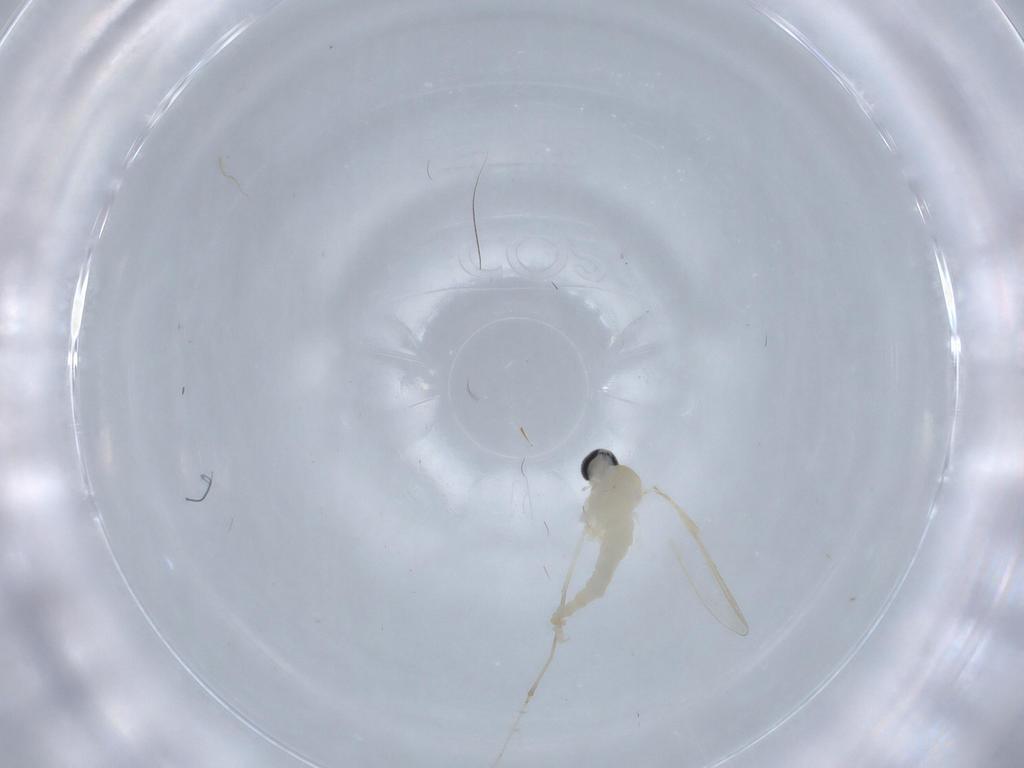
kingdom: Animalia
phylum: Arthropoda
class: Insecta
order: Diptera
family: Cecidomyiidae
